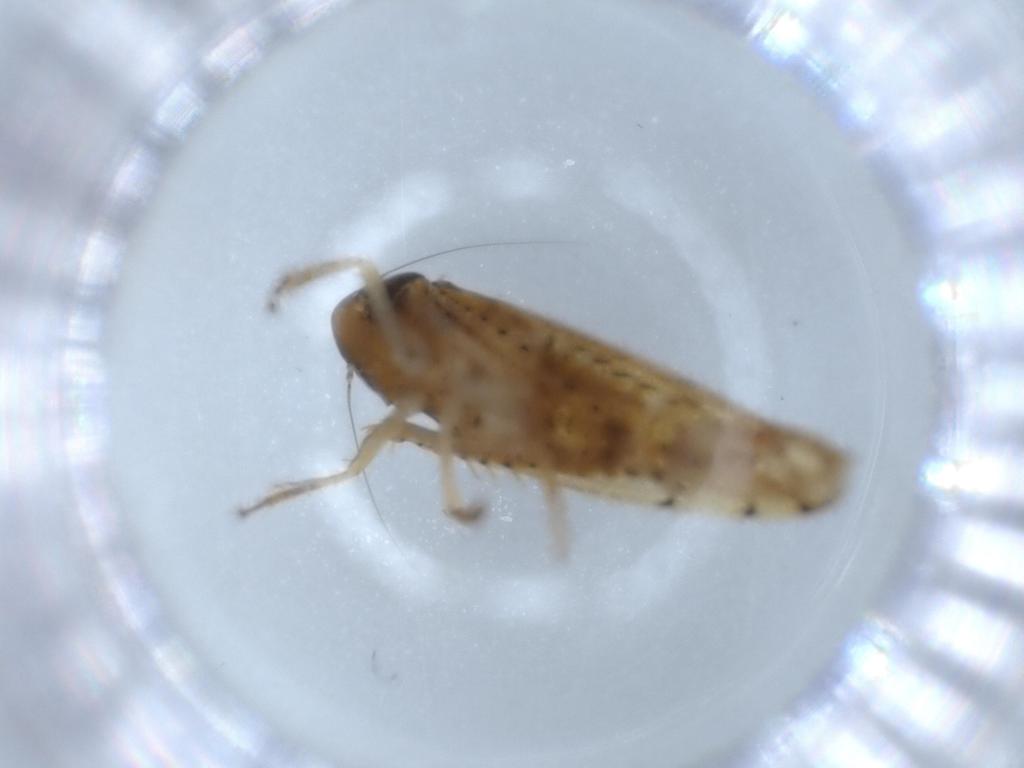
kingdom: Animalia
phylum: Arthropoda
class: Insecta
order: Hemiptera
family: Cicadellidae
